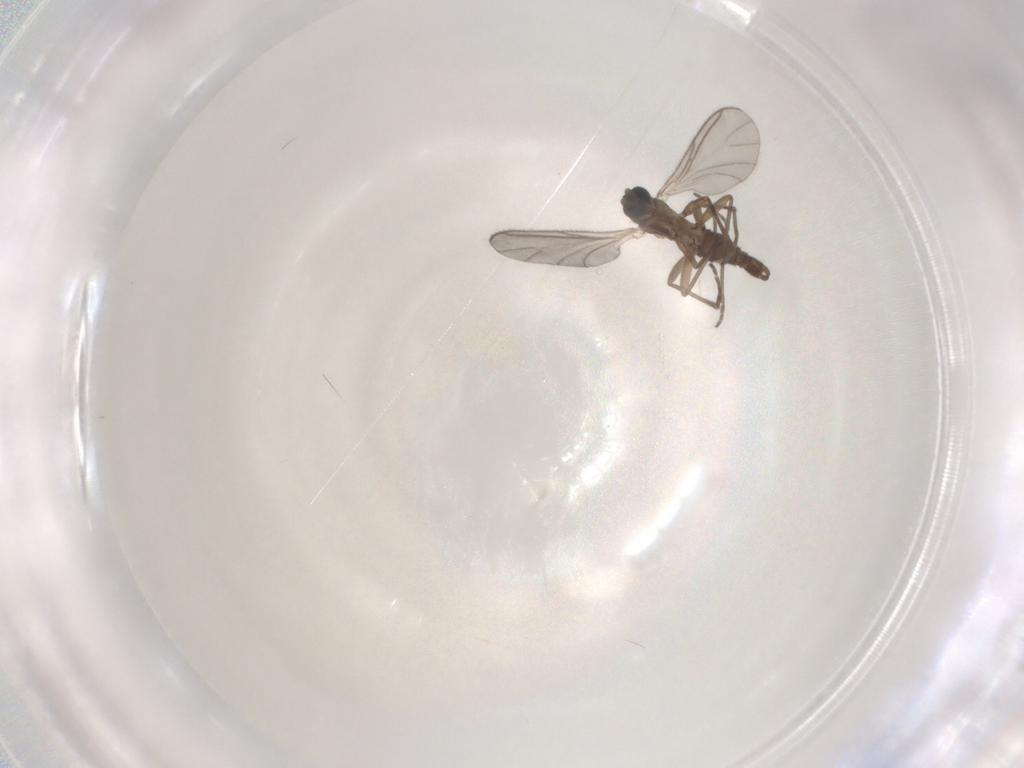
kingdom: Animalia
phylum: Arthropoda
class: Insecta
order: Diptera
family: Sciaridae
